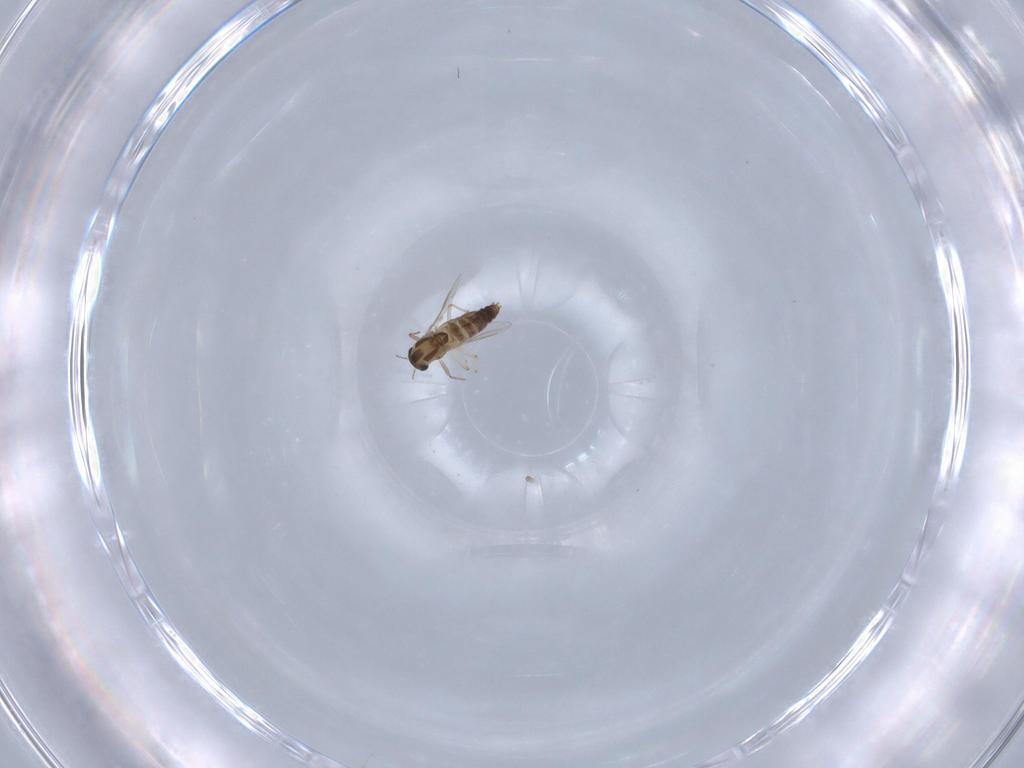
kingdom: Animalia
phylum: Arthropoda
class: Insecta
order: Diptera
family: Chironomidae
